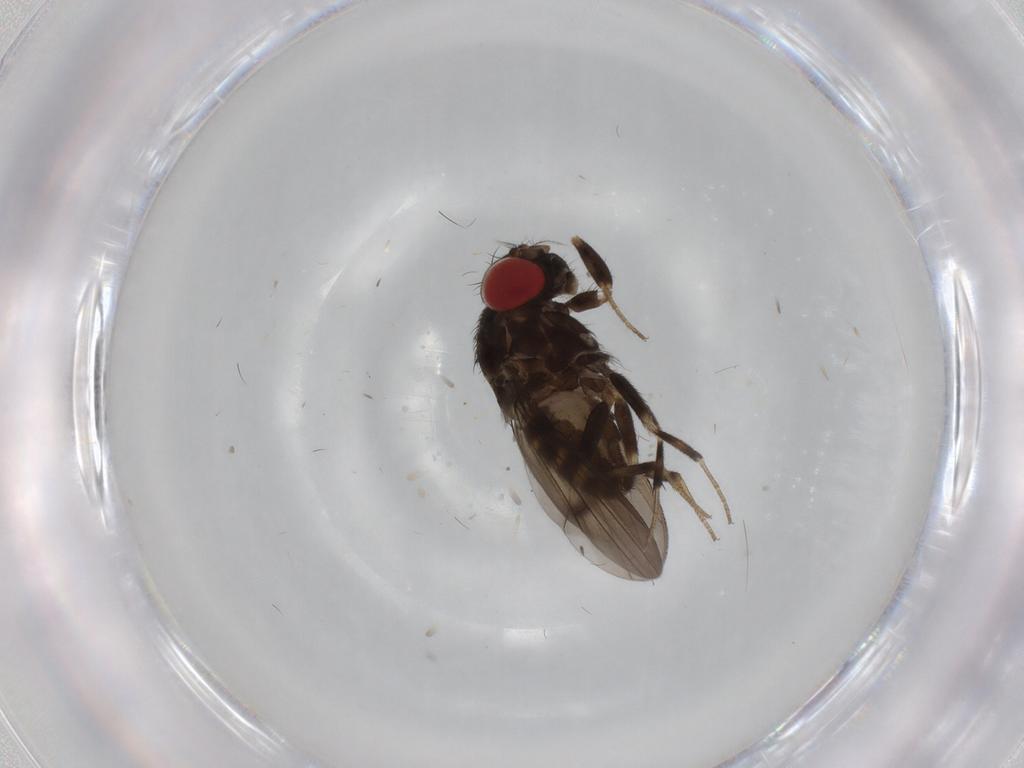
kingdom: Animalia
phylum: Arthropoda
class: Insecta
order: Diptera
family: Drosophilidae
